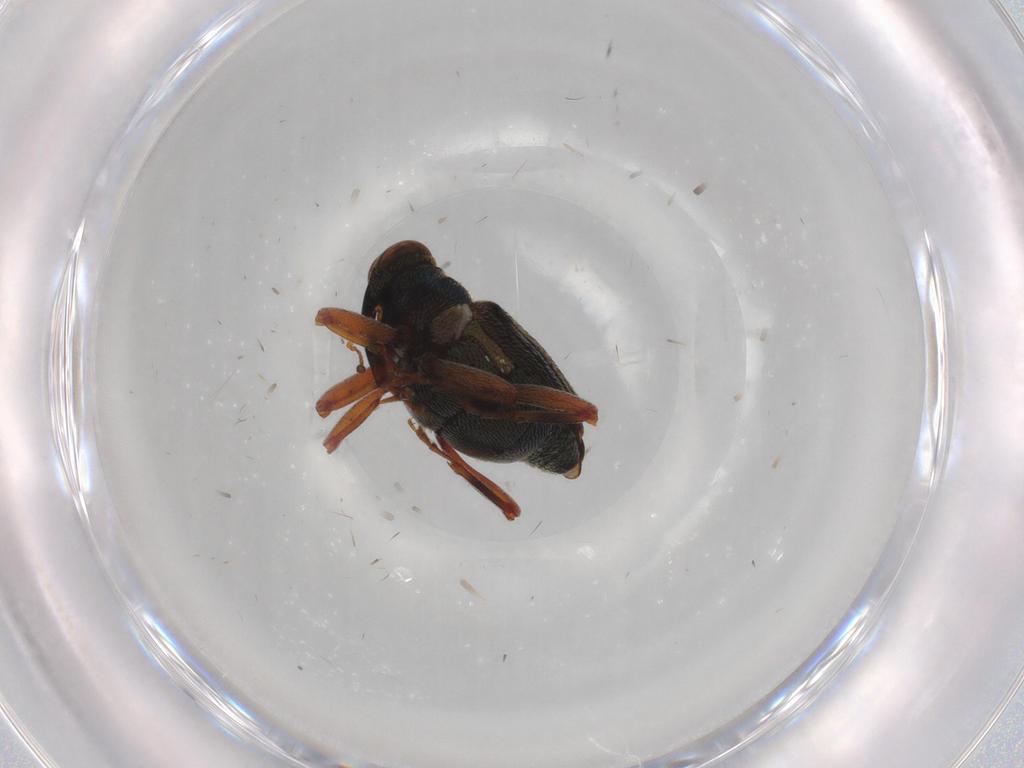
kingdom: Animalia
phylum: Arthropoda
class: Insecta
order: Coleoptera
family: Curculionidae
